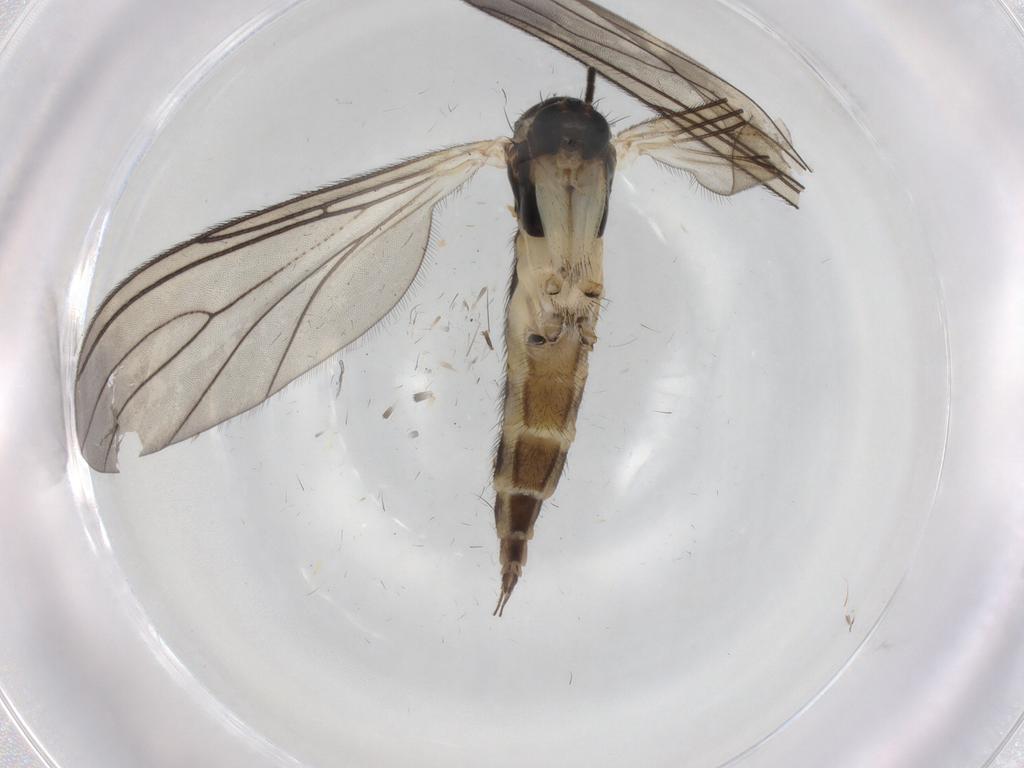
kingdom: Animalia
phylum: Arthropoda
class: Insecta
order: Diptera
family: Sciaridae
